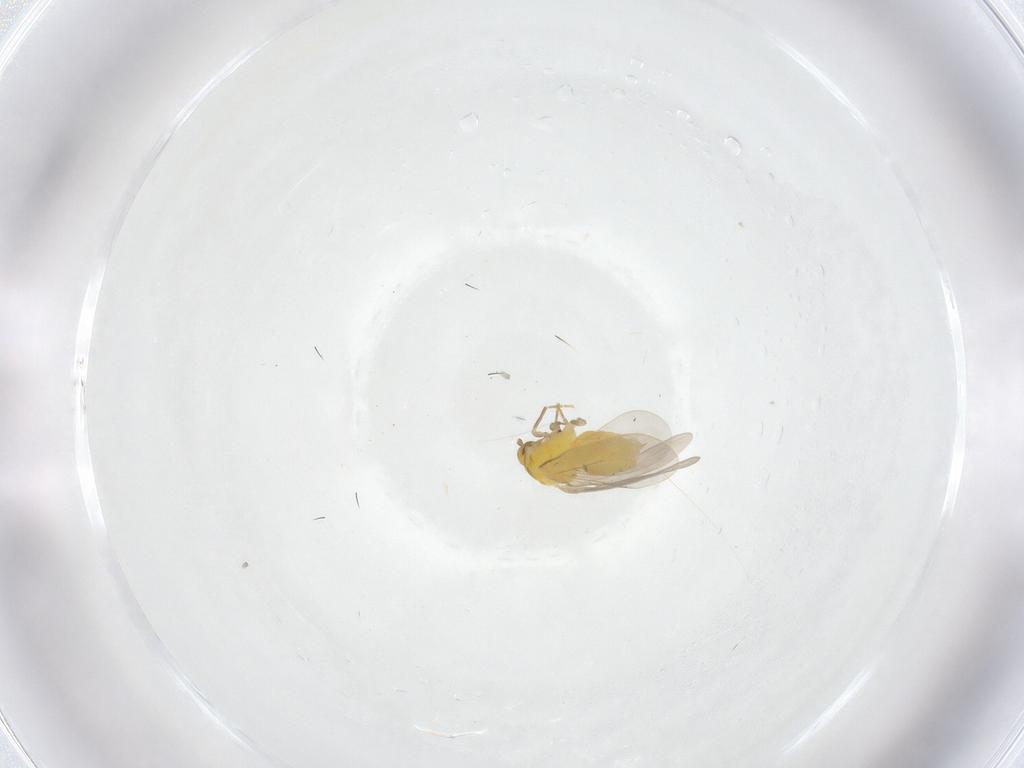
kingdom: Animalia
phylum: Arthropoda
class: Insecta
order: Hemiptera
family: Aleyrodidae
